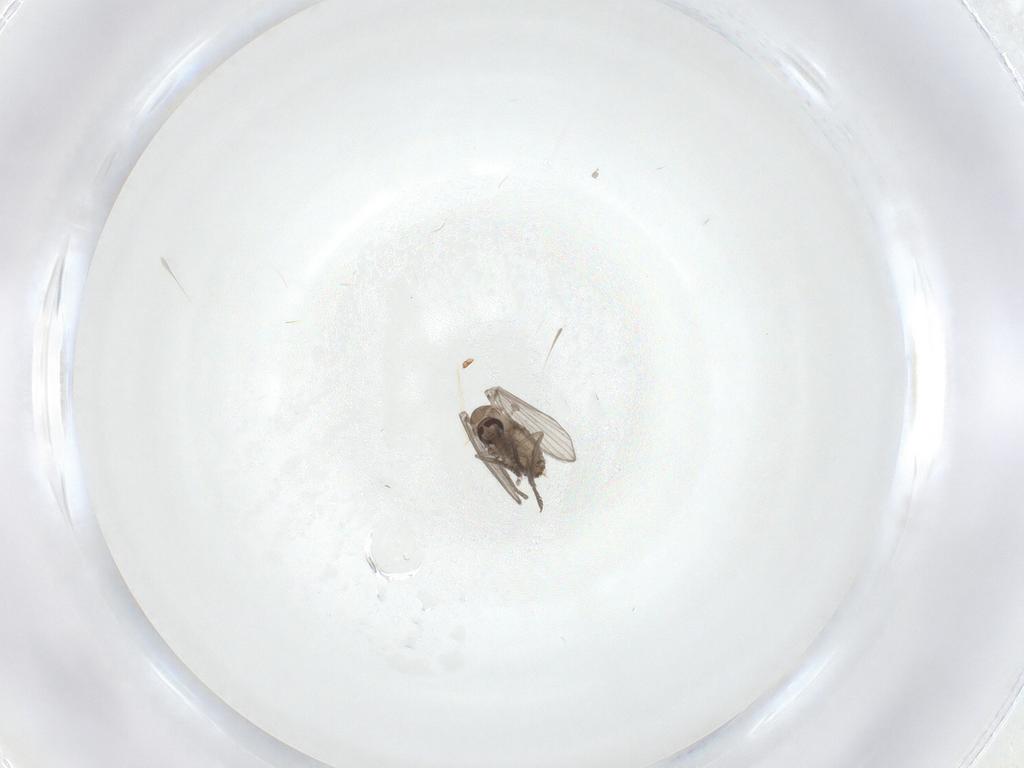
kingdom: Animalia
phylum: Arthropoda
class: Insecta
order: Diptera
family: Psychodidae
